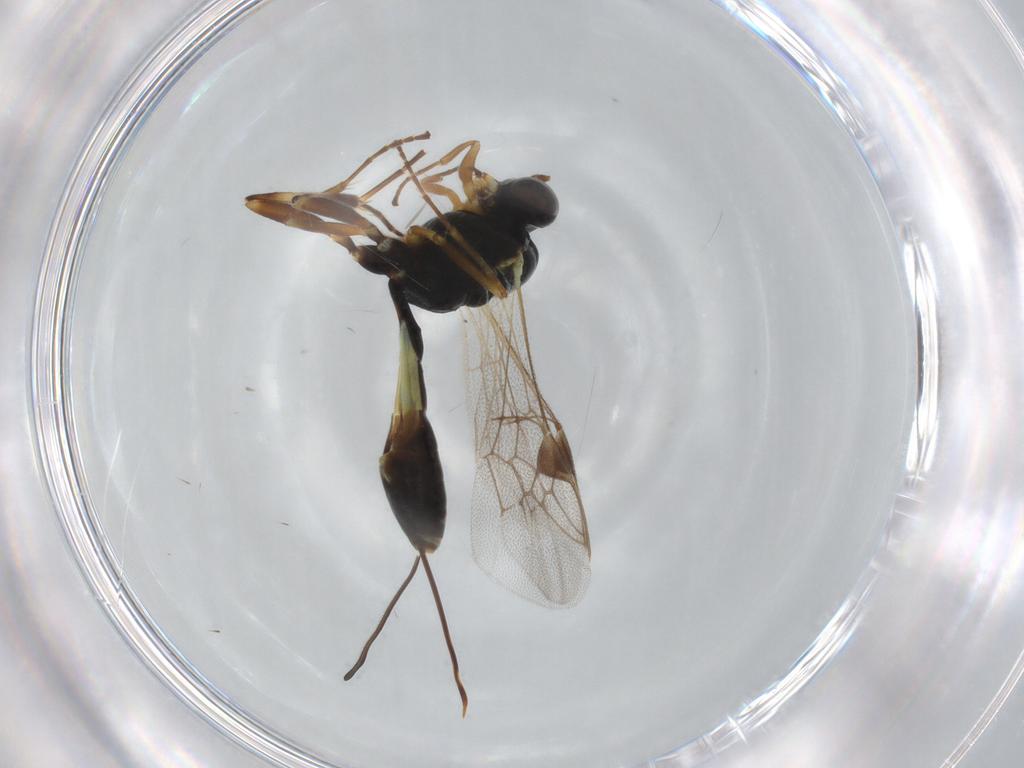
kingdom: Animalia
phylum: Arthropoda
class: Insecta
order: Hymenoptera
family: Ichneumonidae
